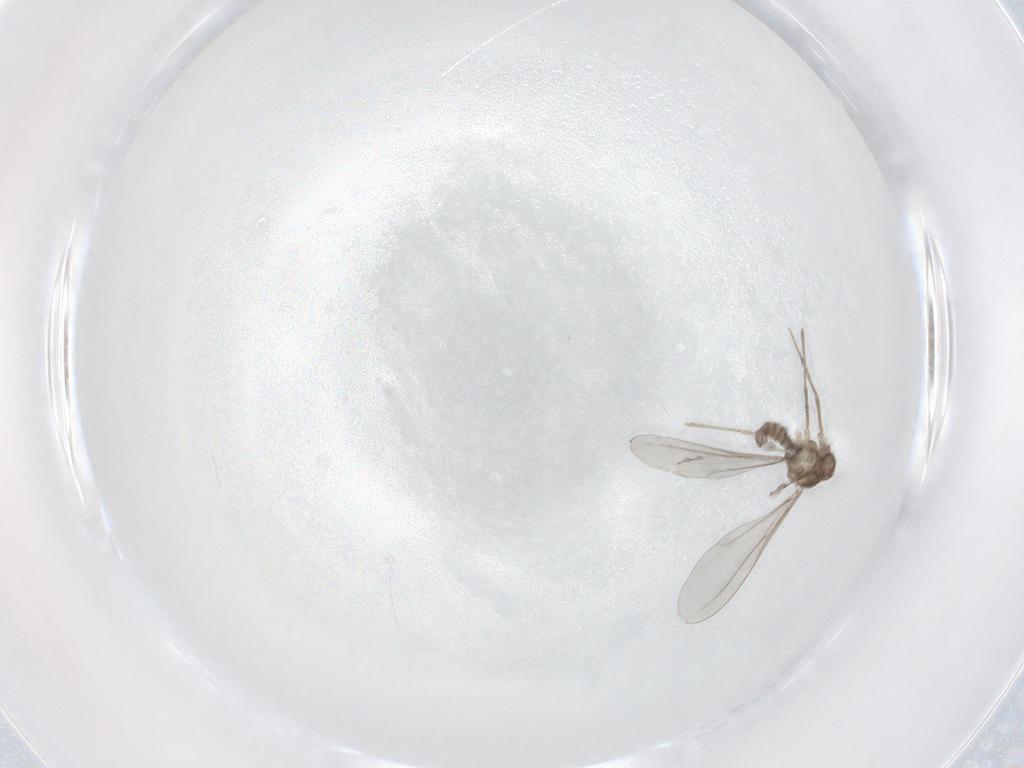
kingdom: Animalia
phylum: Arthropoda
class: Insecta
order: Diptera
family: Cecidomyiidae
